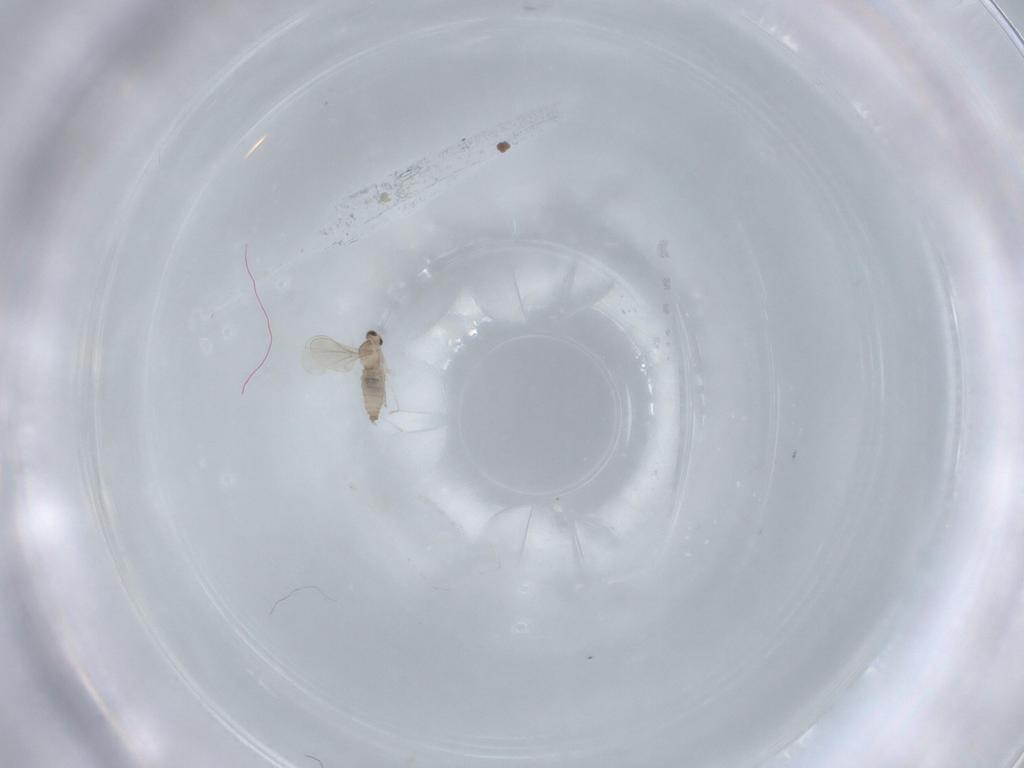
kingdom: Animalia
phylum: Arthropoda
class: Insecta
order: Diptera
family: Cecidomyiidae
